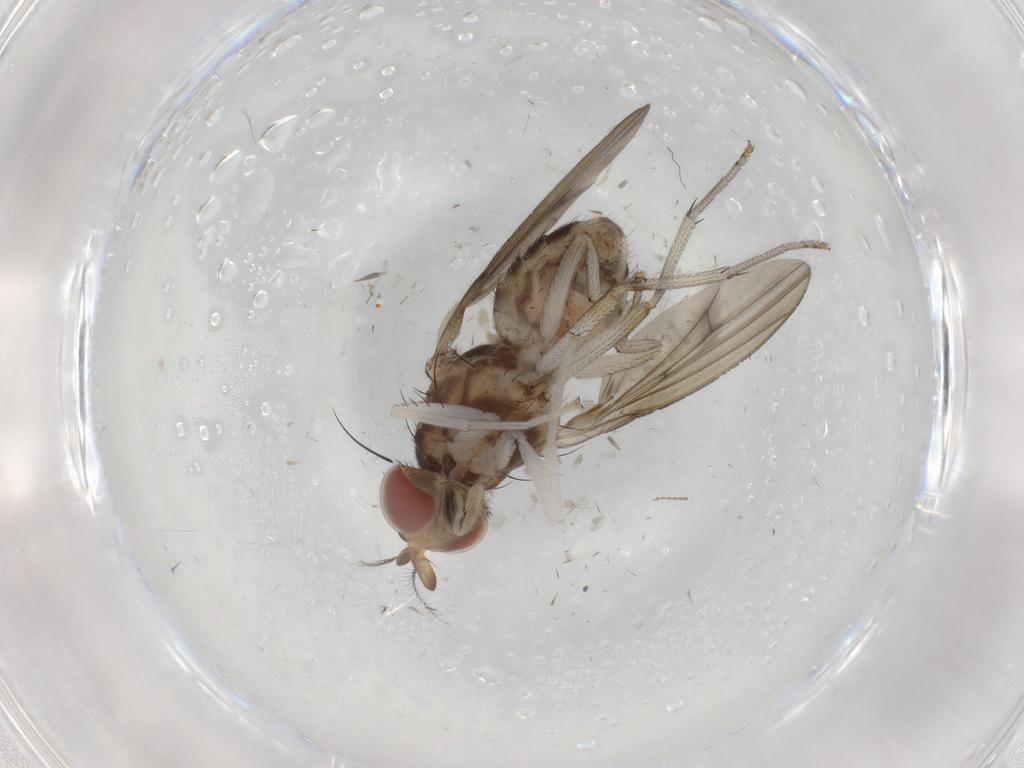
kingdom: Animalia
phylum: Arthropoda
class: Insecta
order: Diptera
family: Lauxaniidae
